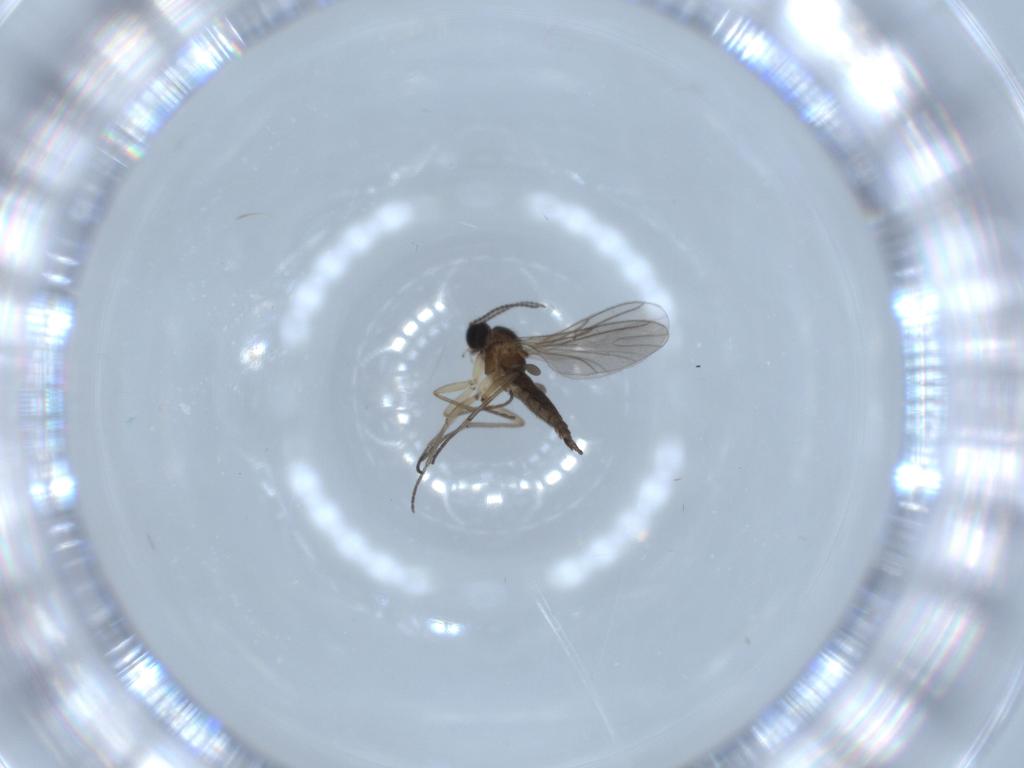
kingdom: Animalia
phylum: Arthropoda
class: Insecta
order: Diptera
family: Sciaridae
